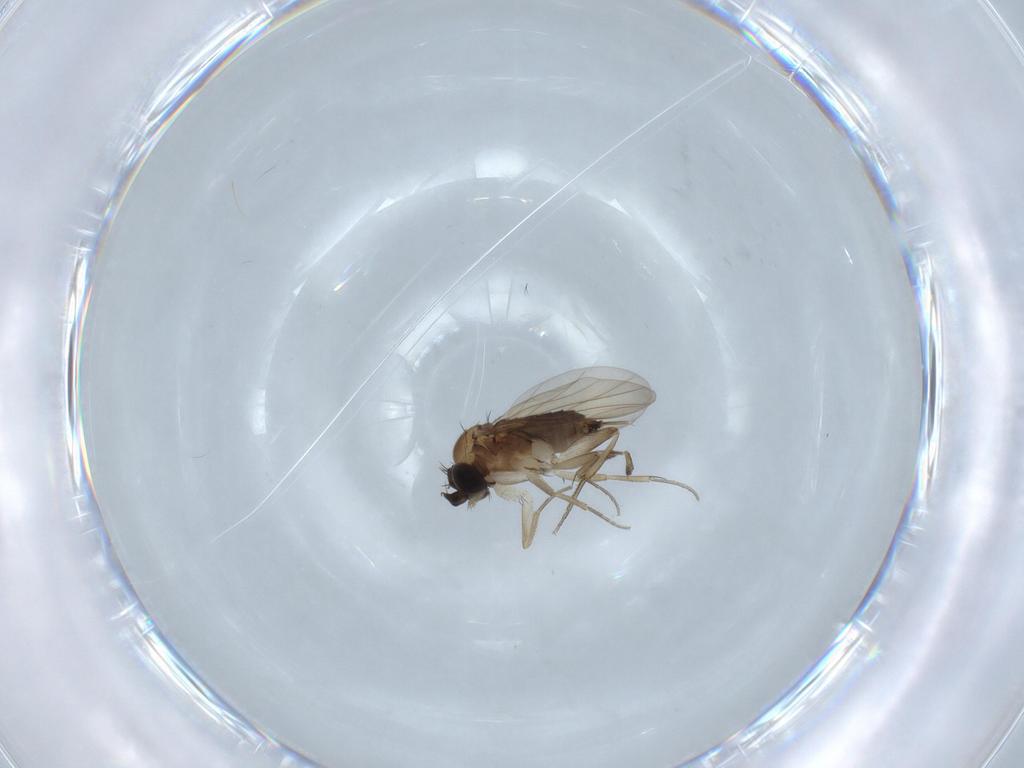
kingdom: Animalia
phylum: Arthropoda
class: Insecta
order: Diptera
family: Phoridae
